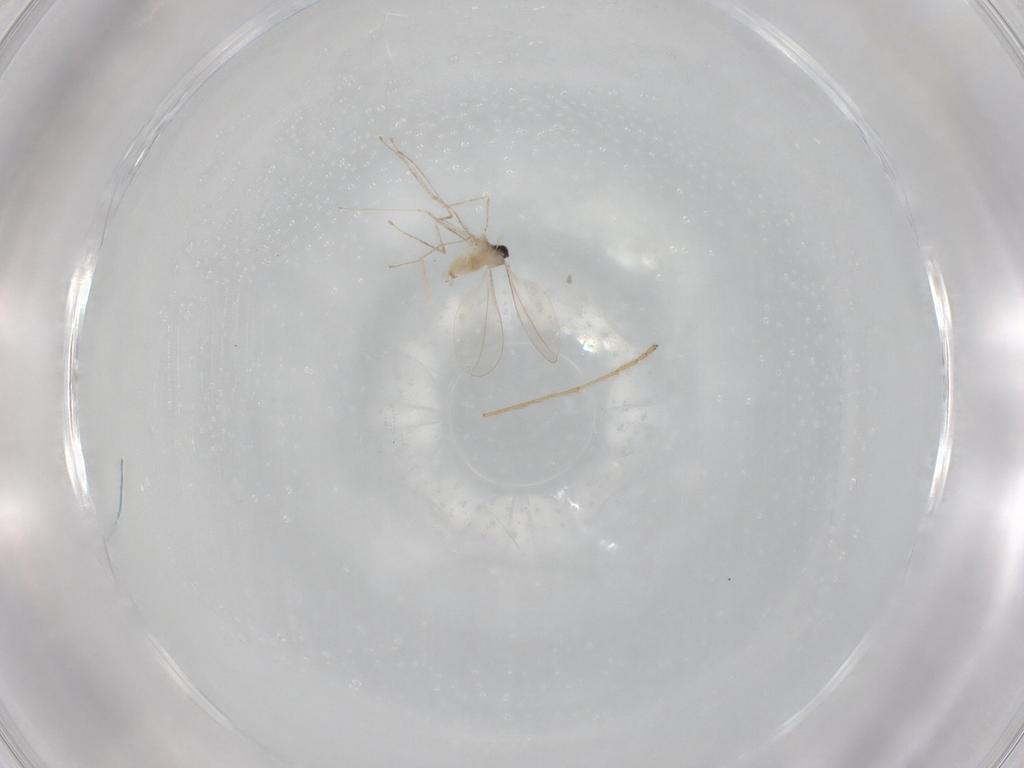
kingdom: Animalia
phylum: Arthropoda
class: Insecta
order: Diptera
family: Limoniidae
